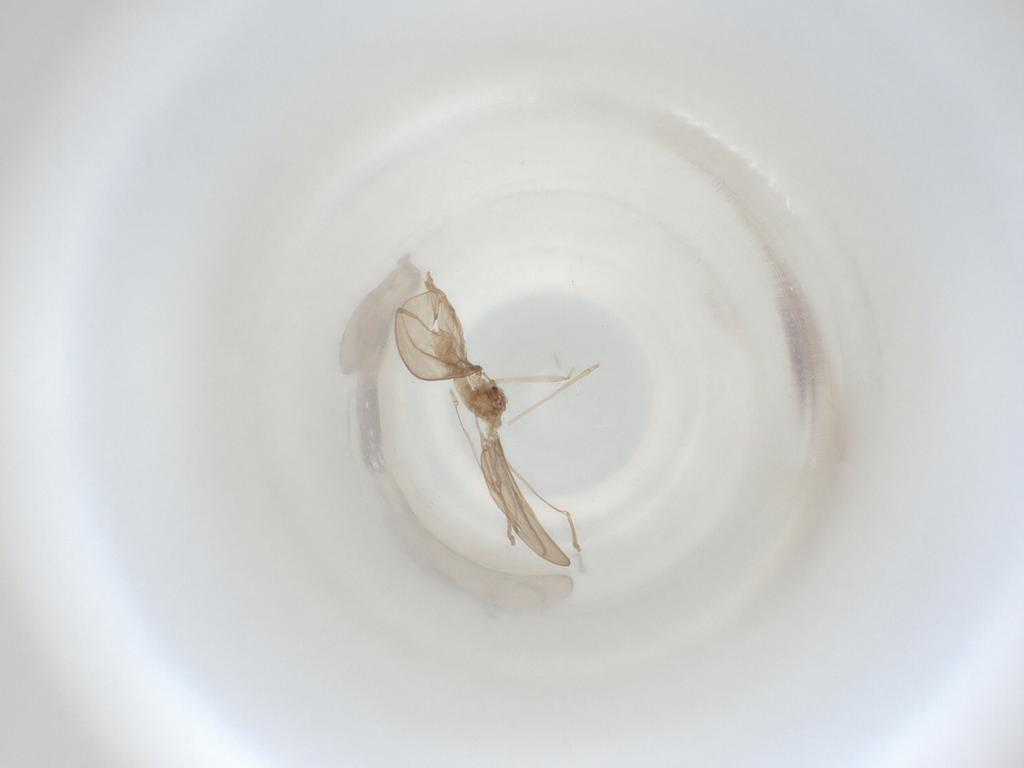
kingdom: Animalia
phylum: Arthropoda
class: Insecta
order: Diptera
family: Cecidomyiidae
